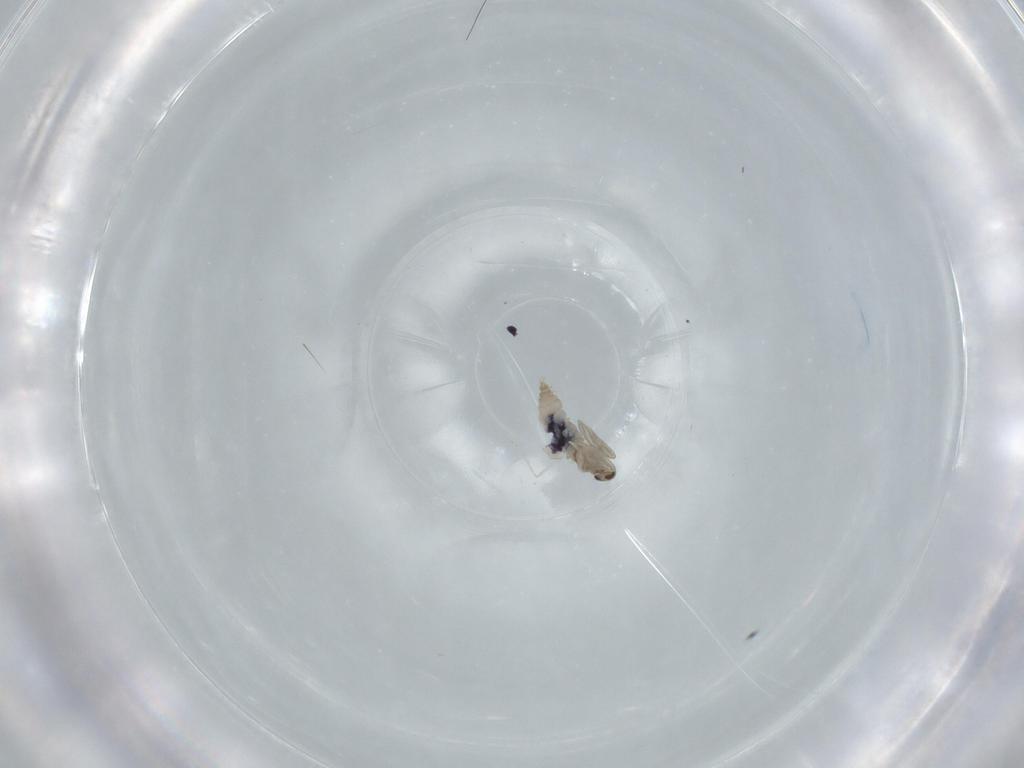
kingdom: Animalia
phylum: Arthropoda
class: Insecta
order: Diptera
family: Cecidomyiidae
